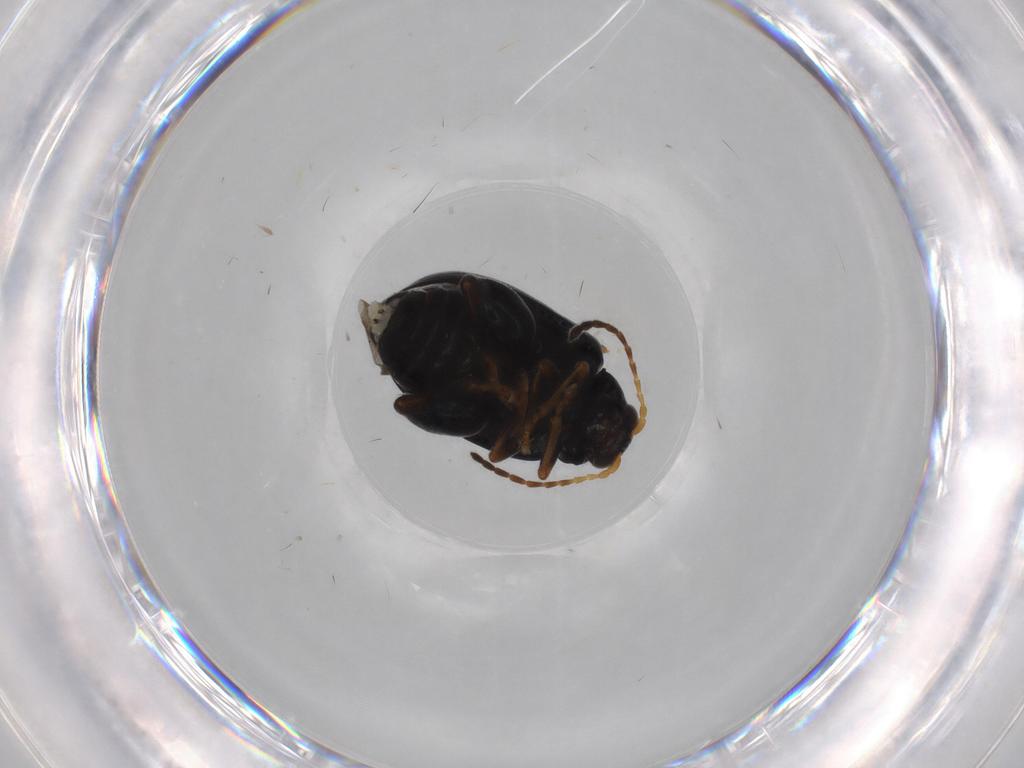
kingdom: Animalia
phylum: Arthropoda
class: Insecta
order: Coleoptera
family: Chrysomelidae
